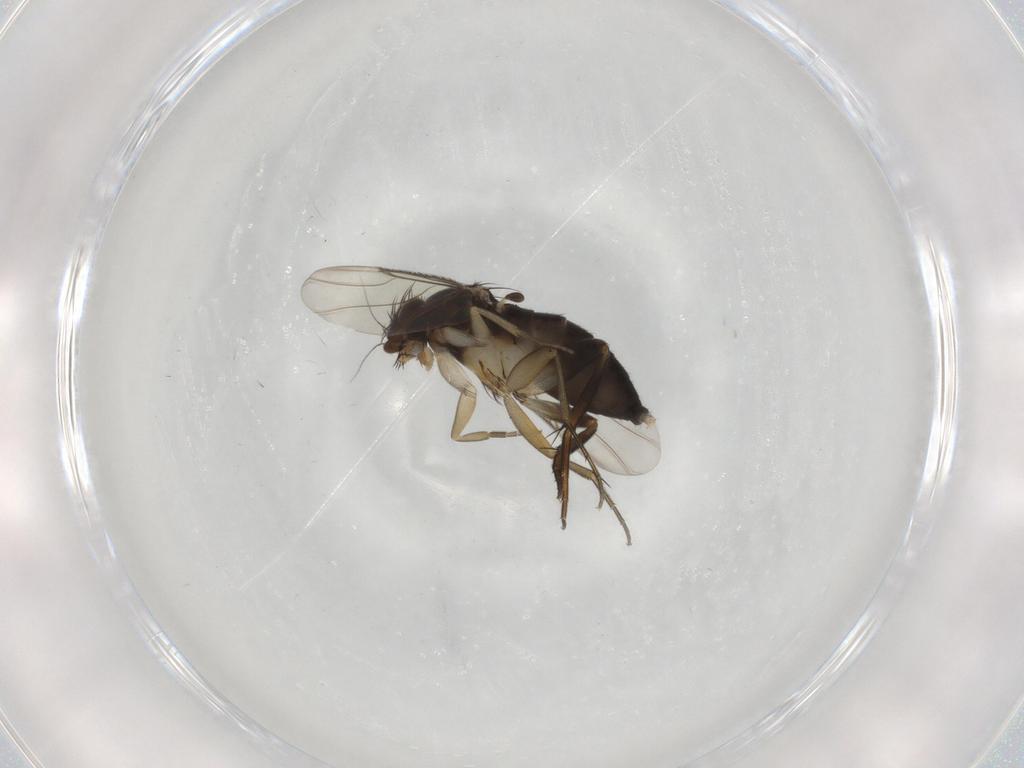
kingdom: Animalia
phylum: Arthropoda
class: Insecta
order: Diptera
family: Phoridae
